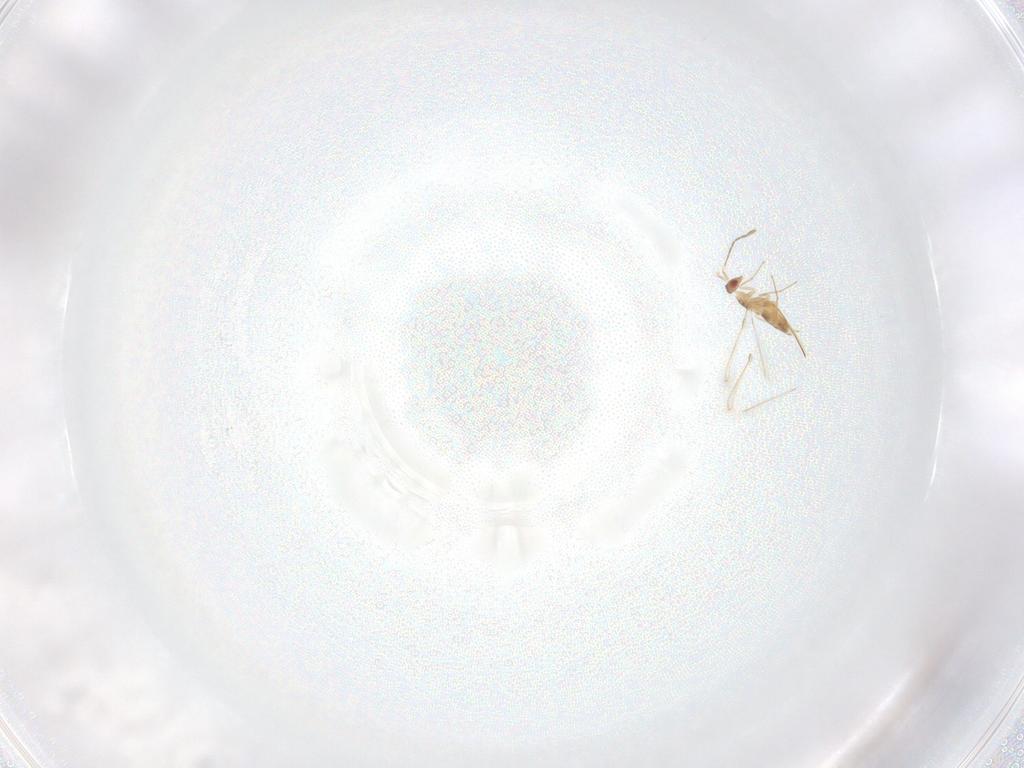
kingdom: Animalia
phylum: Arthropoda
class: Insecta
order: Hymenoptera
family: Mymaridae
